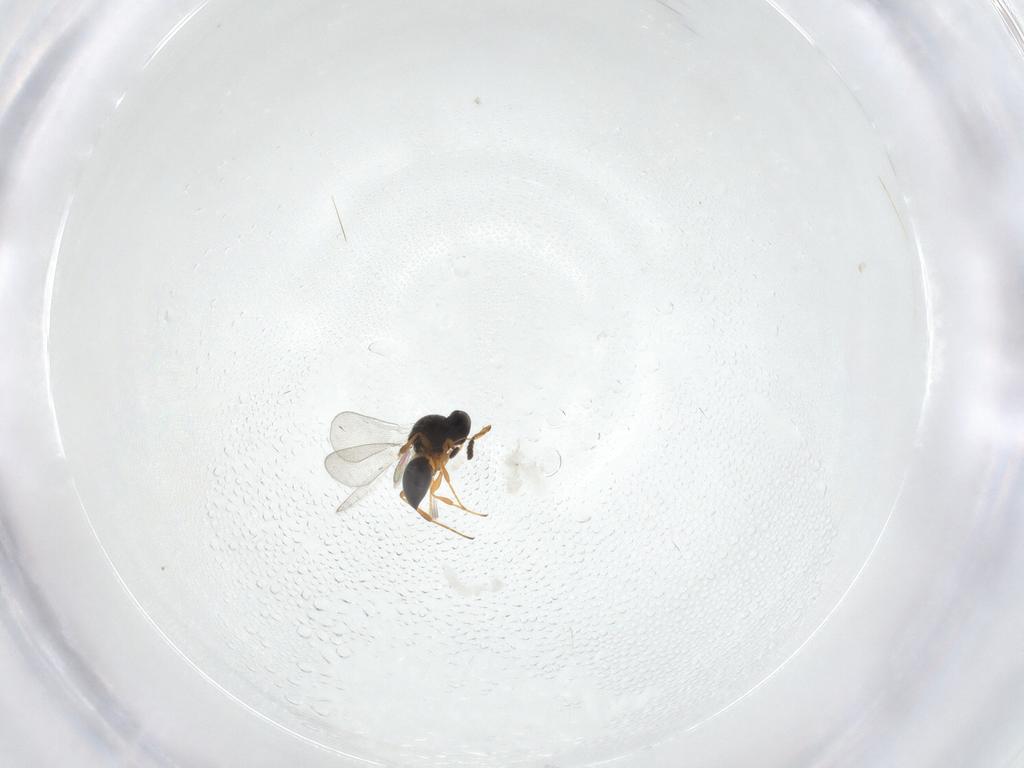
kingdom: Animalia
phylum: Arthropoda
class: Insecta
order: Hymenoptera
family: Platygastridae
